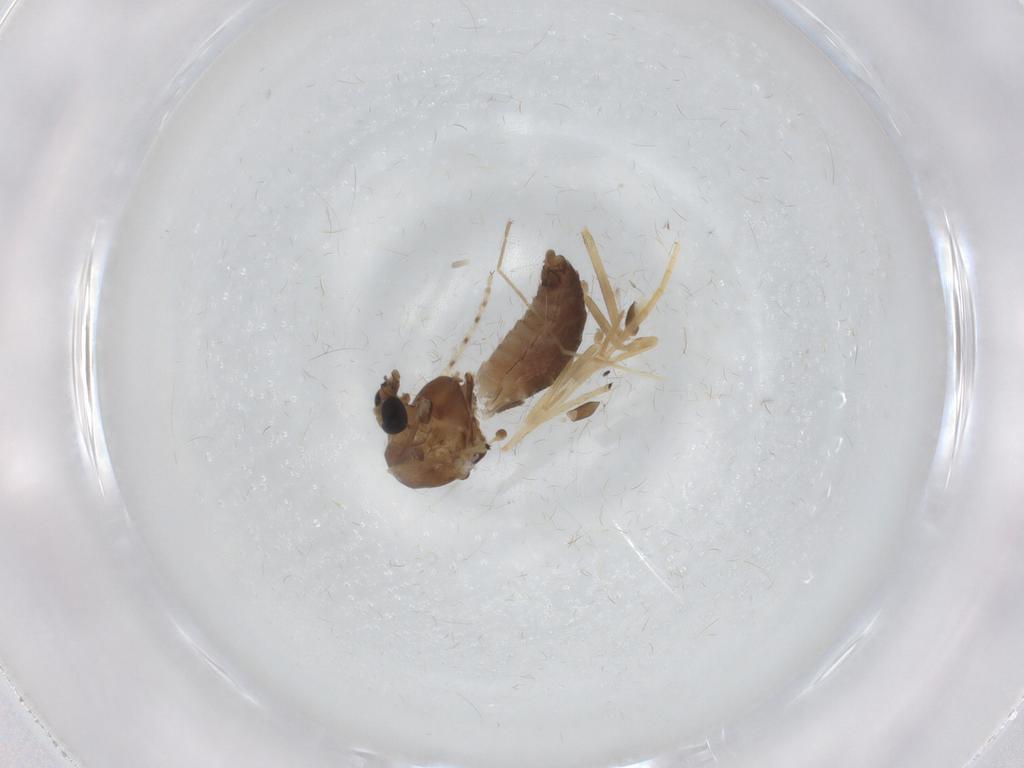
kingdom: Animalia
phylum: Arthropoda
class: Insecta
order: Diptera
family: Chironomidae
